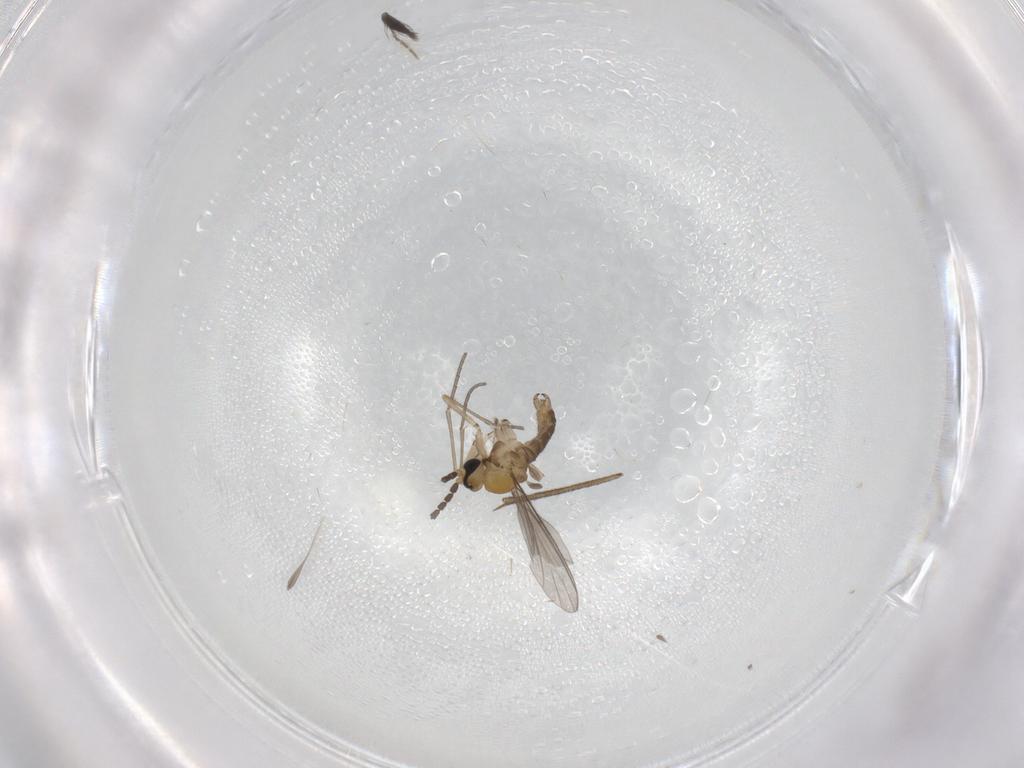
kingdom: Animalia
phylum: Arthropoda
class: Insecta
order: Diptera
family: Sciaridae
